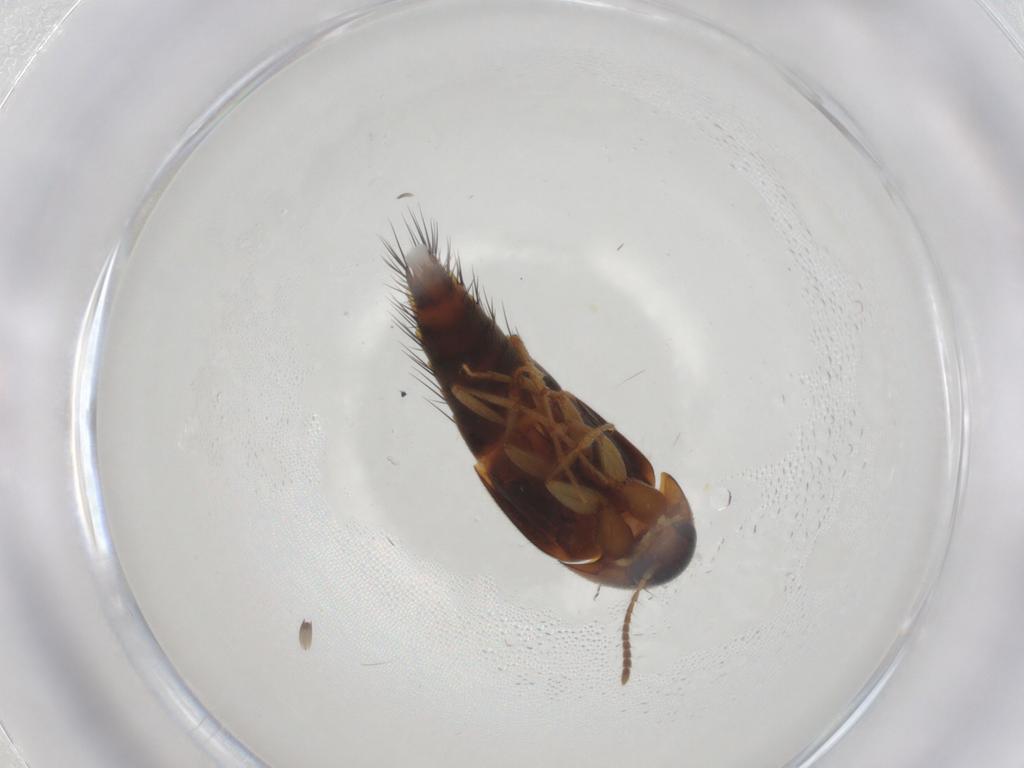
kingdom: Animalia
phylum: Arthropoda
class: Insecta
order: Coleoptera
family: Staphylinidae
